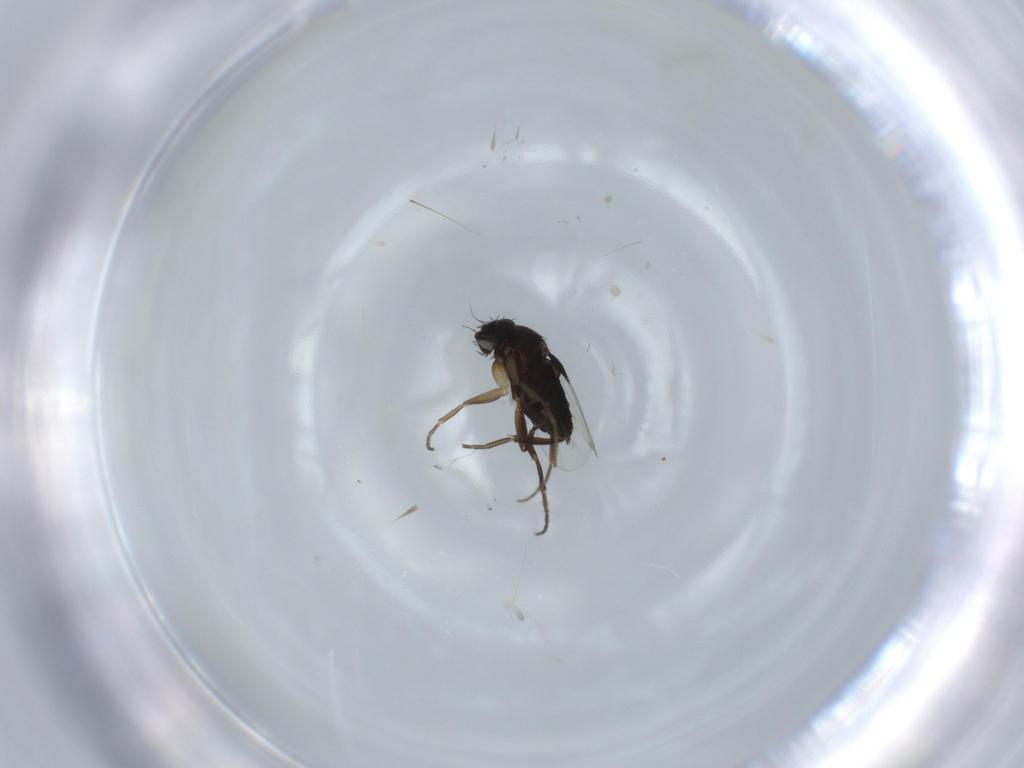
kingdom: Animalia
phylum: Arthropoda
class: Insecta
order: Diptera
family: Phoridae
